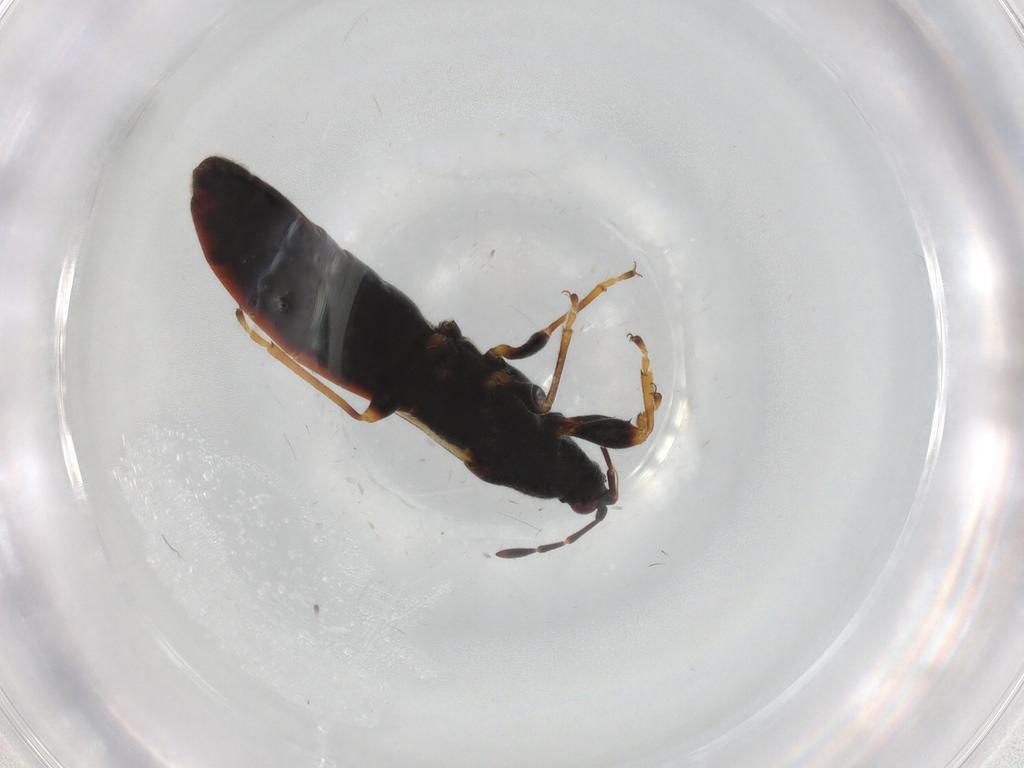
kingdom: Animalia
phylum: Arthropoda
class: Insecta
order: Hemiptera
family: Blissidae
